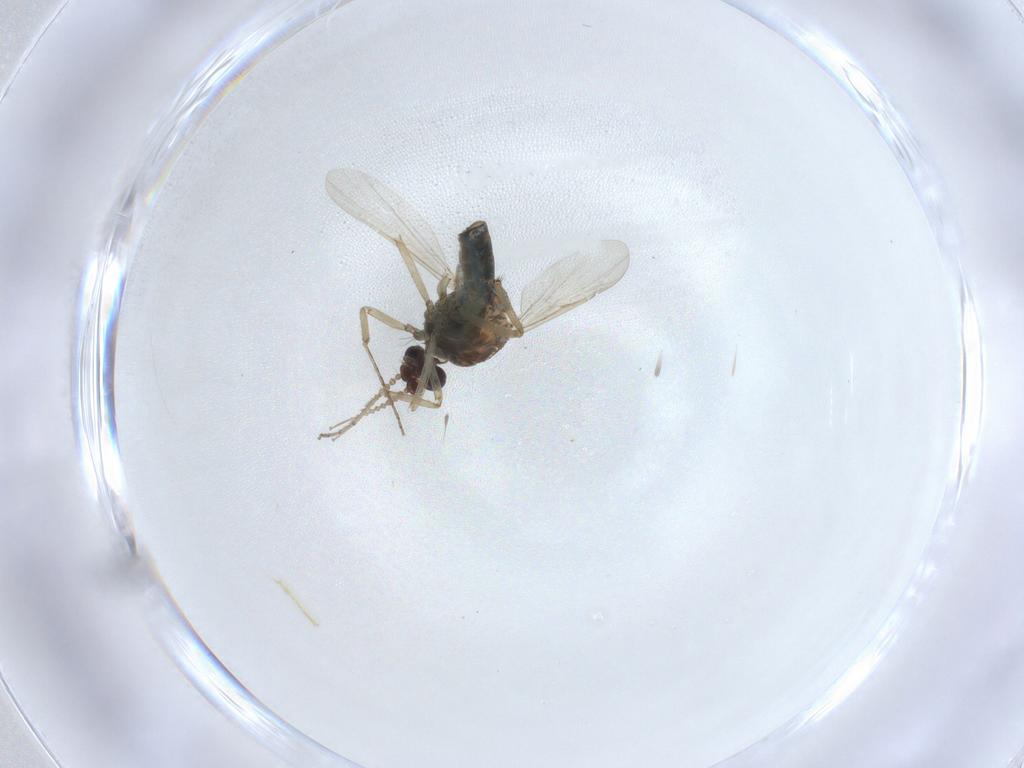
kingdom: Animalia
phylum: Arthropoda
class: Insecta
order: Diptera
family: Ceratopogonidae
